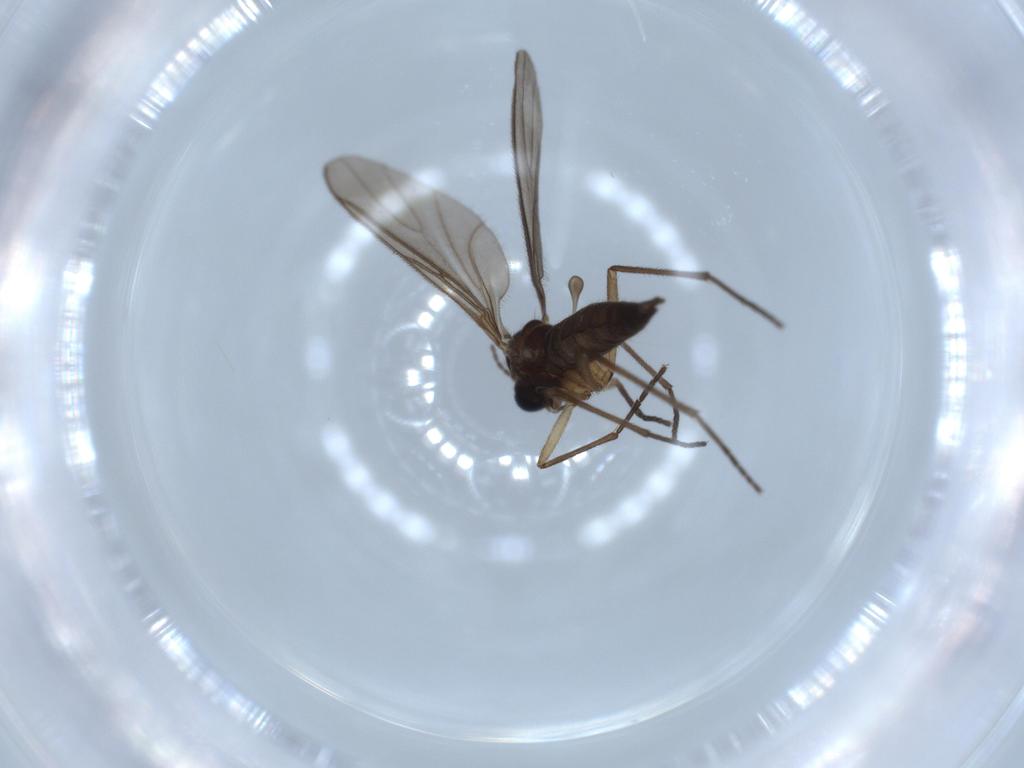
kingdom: Animalia
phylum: Arthropoda
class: Insecta
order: Diptera
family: Sciaridae
